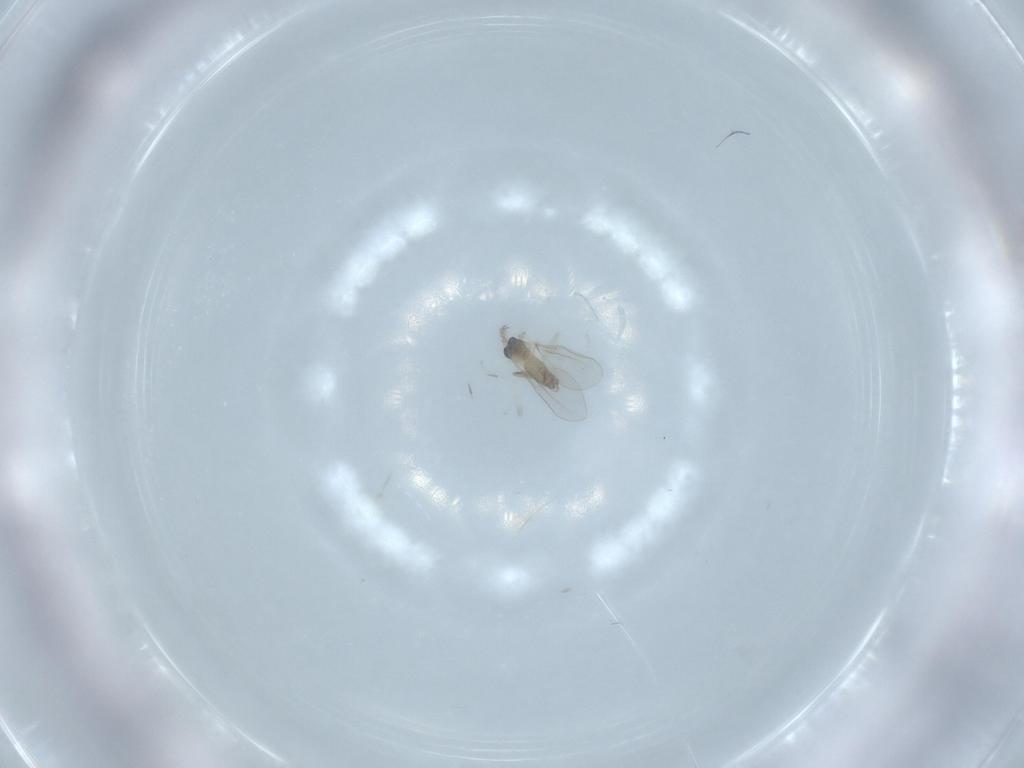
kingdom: Animalia
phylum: Arthropoda
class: Insecta
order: Diptera
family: Cecidomyiidae
